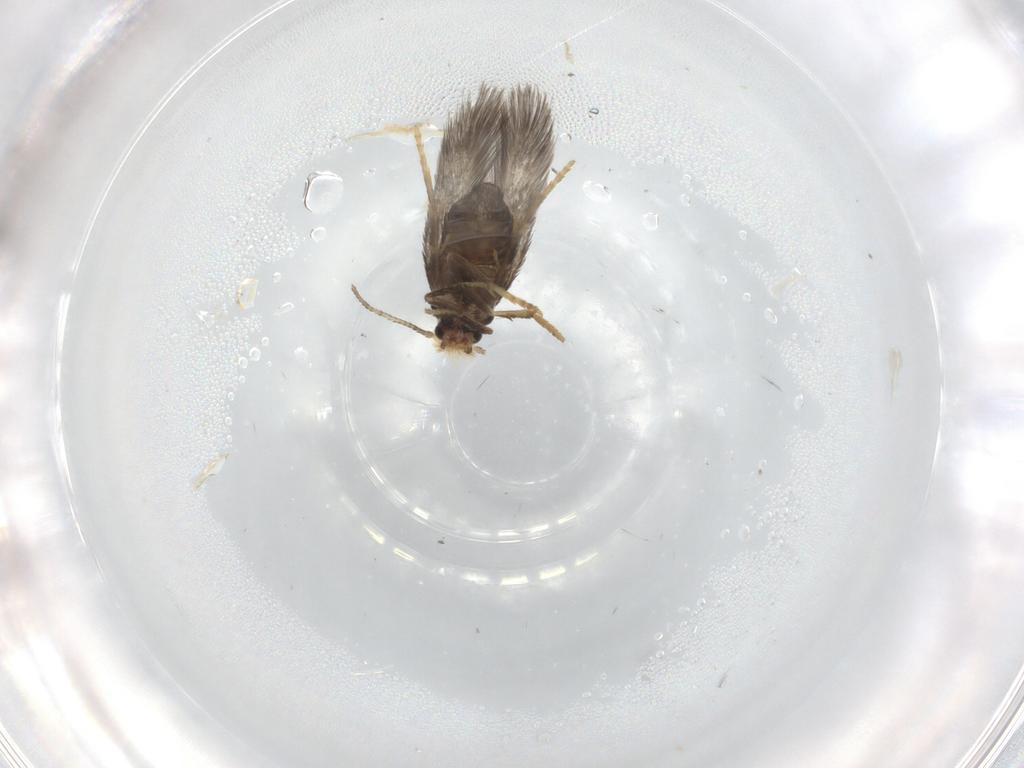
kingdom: Animalia
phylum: Arthropoda
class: Insecta
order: Lepidoptera
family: Nepticulidae
